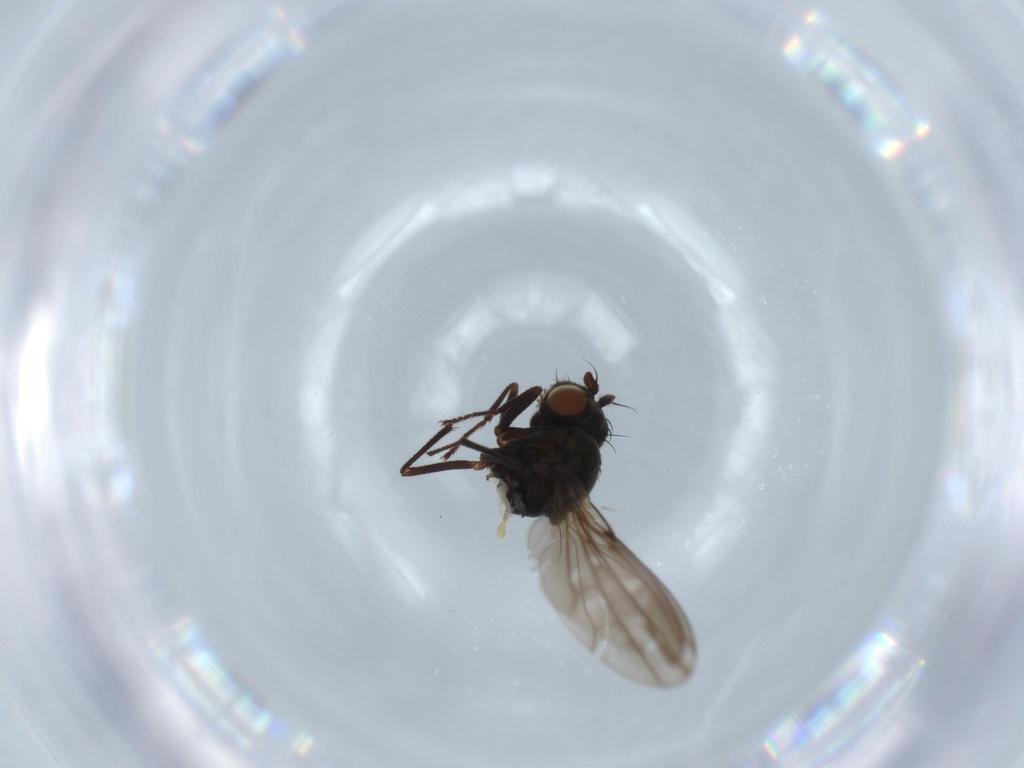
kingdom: Animalia
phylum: Arthropoda
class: Insecta
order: Diptera
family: Ephydridae
